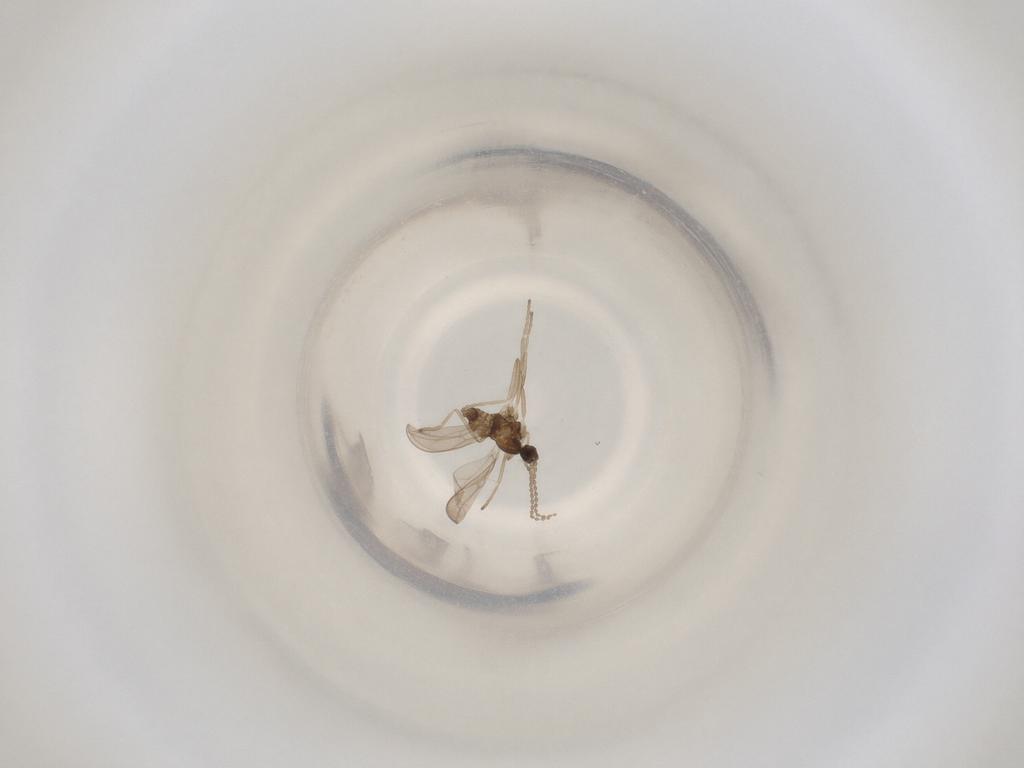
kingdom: Animalia
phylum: Arthropoda
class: Insecta
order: Diptera
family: Cecidomyiidae
